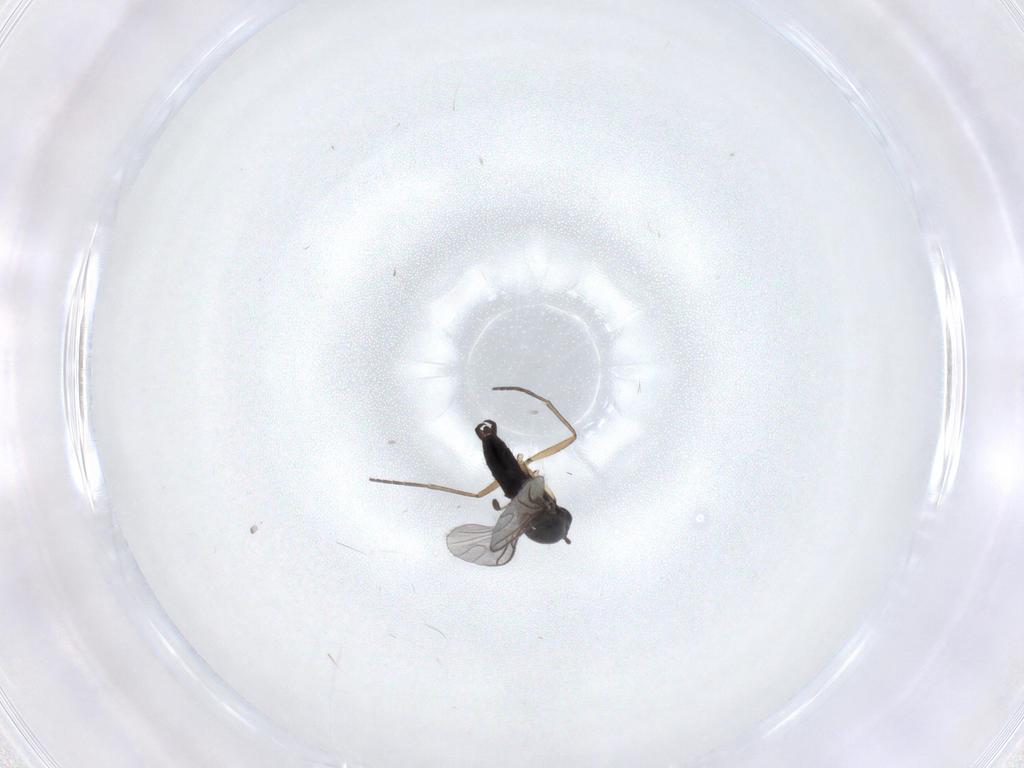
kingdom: Animalia
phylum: Arthropoda
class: Insecta
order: Diptera
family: Sciaridae
